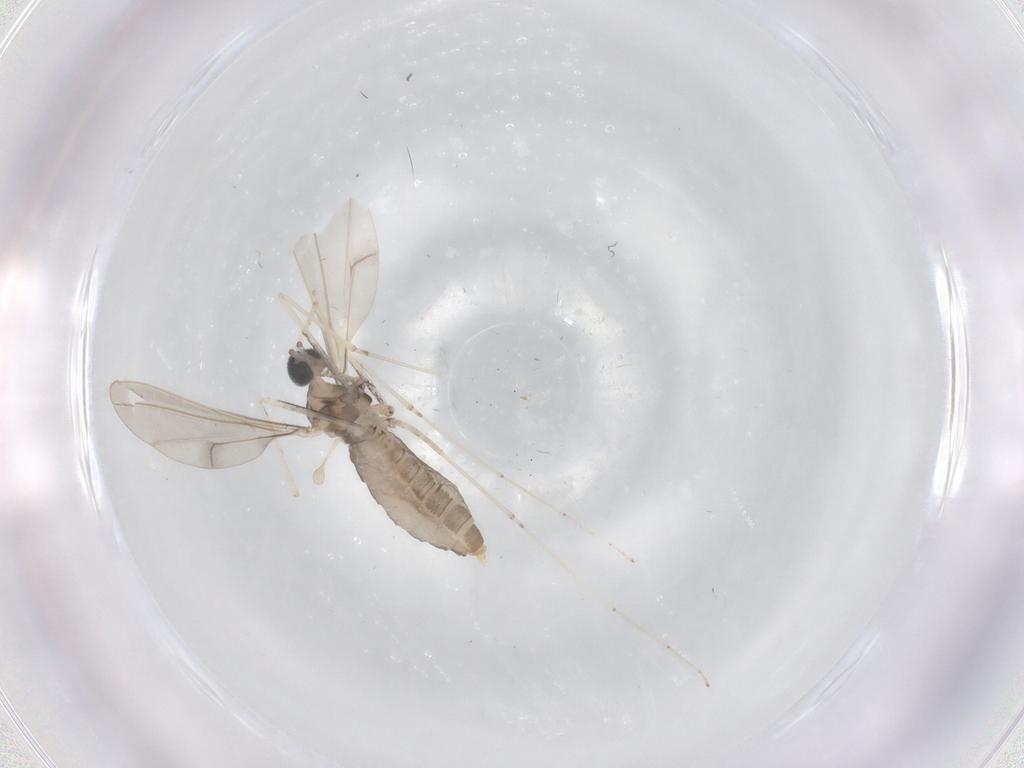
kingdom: Animalia
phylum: Arthropoda
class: Insecta
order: Diptera
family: Cecidomyiidae
